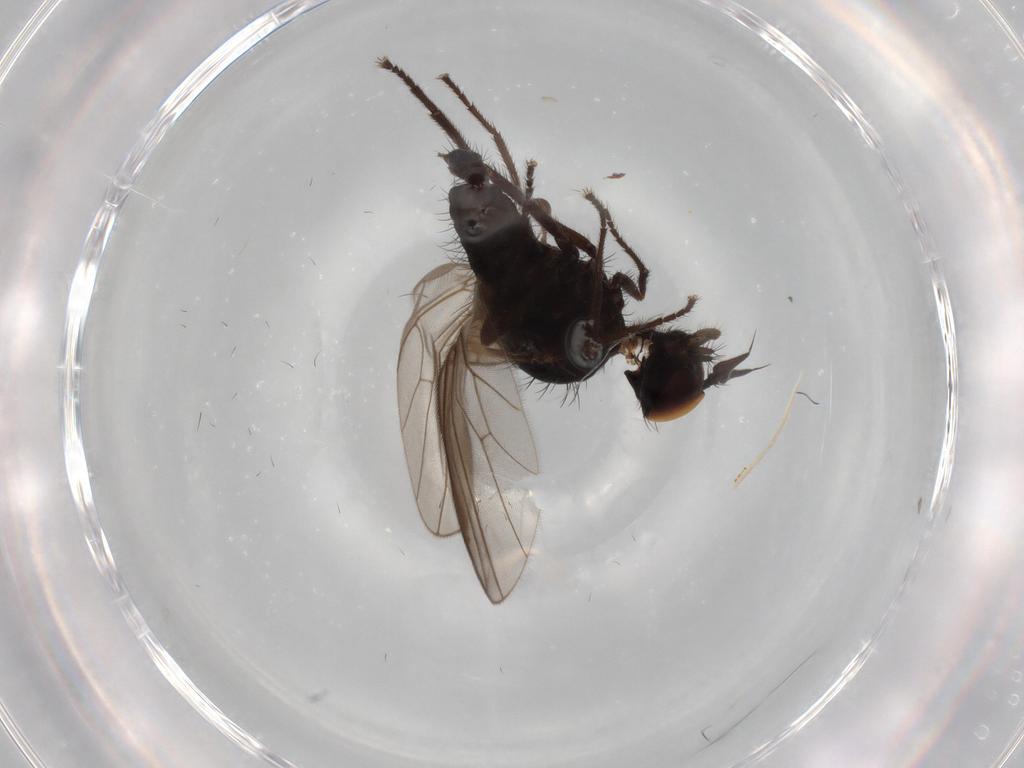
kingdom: Animalia
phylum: Arthropoda
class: Insecta
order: Diptera
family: Dolichopodidae
